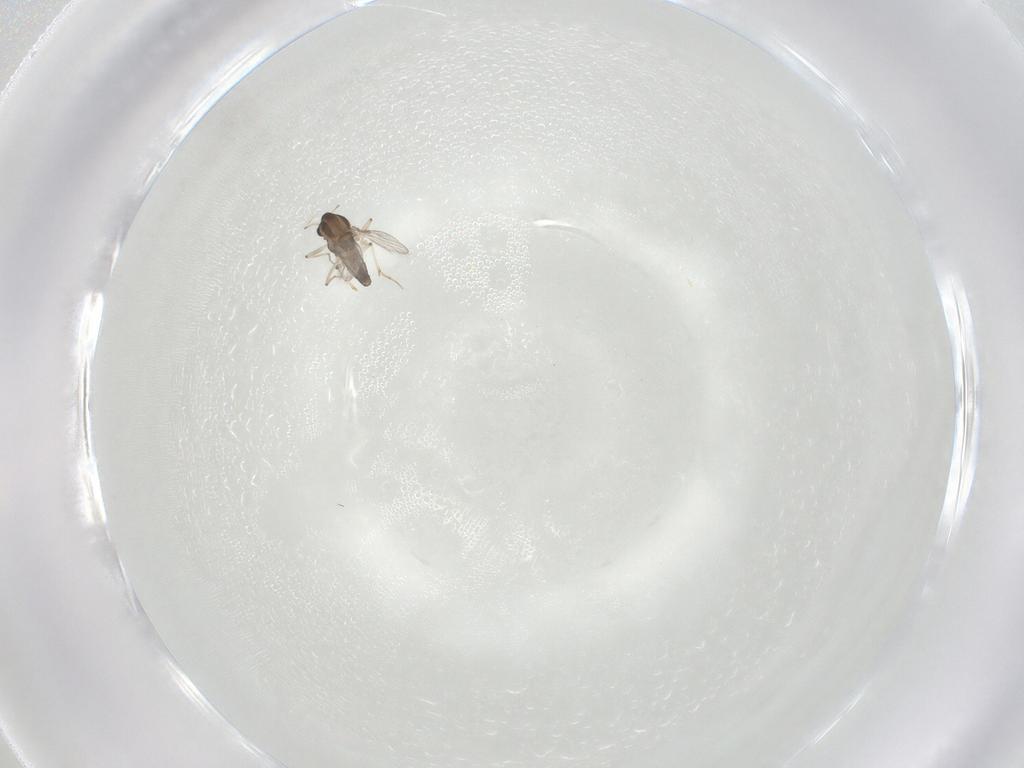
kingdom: Animalia
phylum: Arthropoda
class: Insecta
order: Diptera
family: Chironomidae
